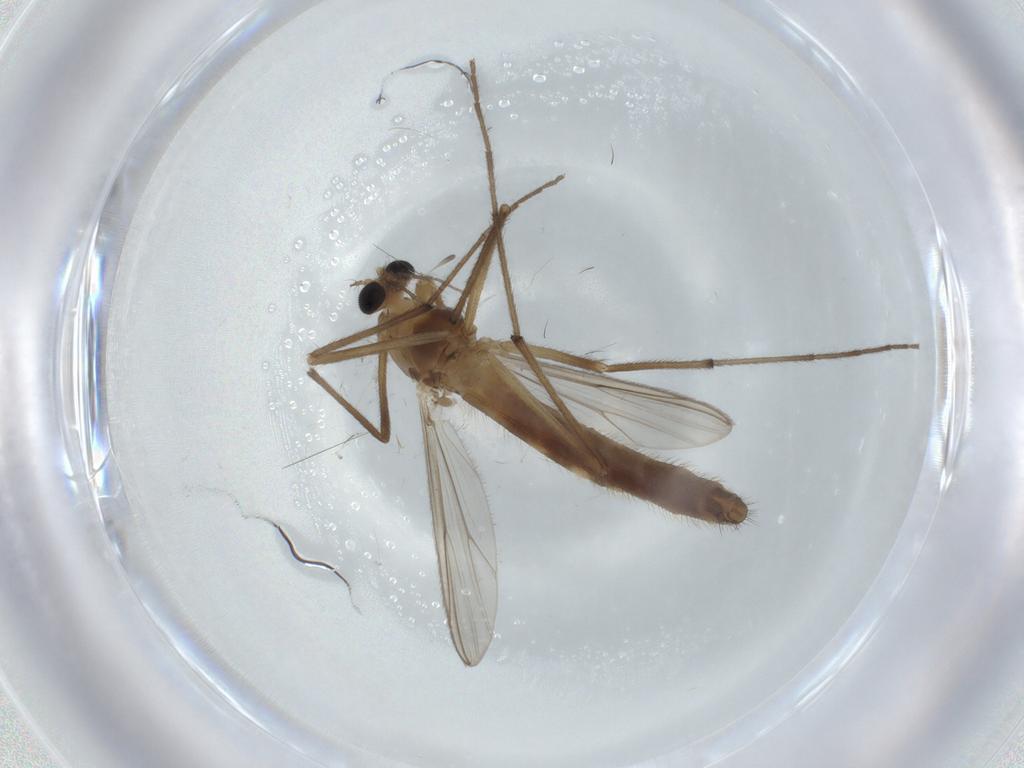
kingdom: Animalia
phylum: Arthropoda
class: Insecta
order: Diptera
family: Chironomidae
